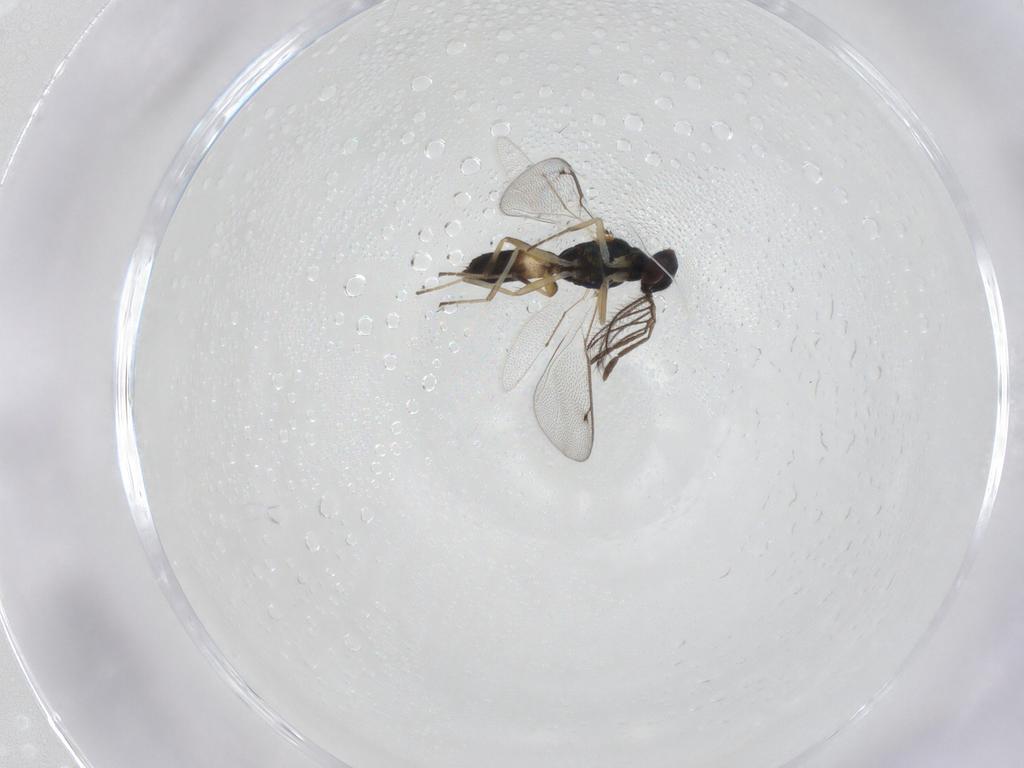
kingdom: Animalia
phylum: Arthropoda
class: Insecta
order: Hymenoptera
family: Eulophidae
